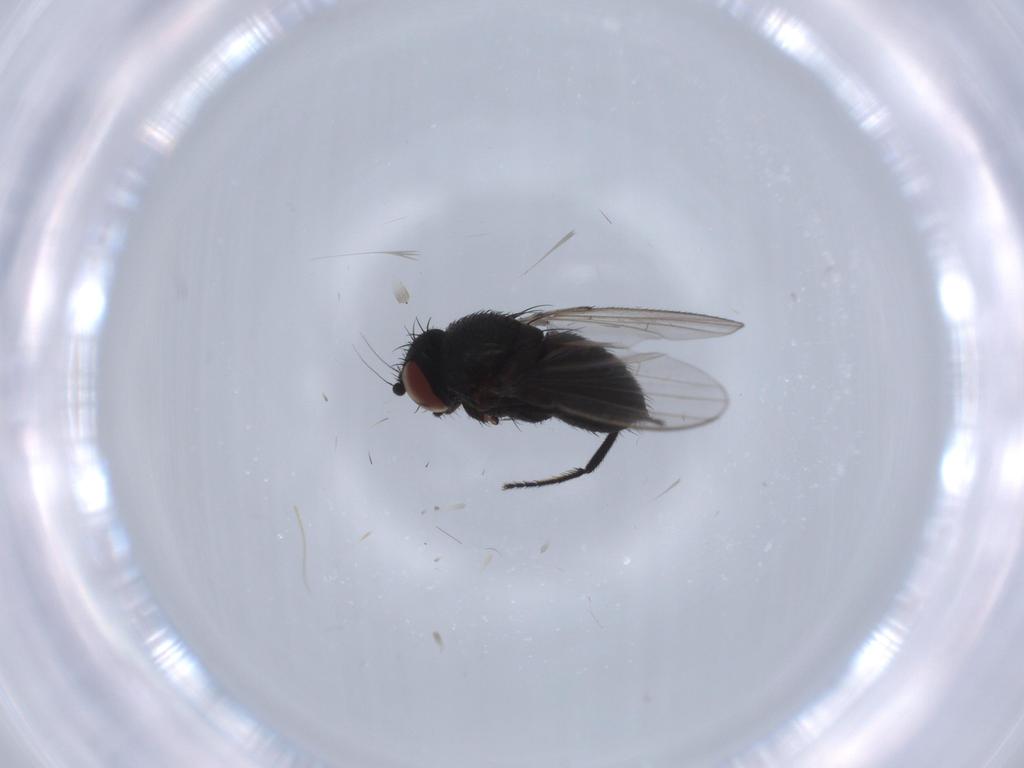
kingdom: Animalia
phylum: Arthropoda
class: Insecta
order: Diptera
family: Milichiidae
